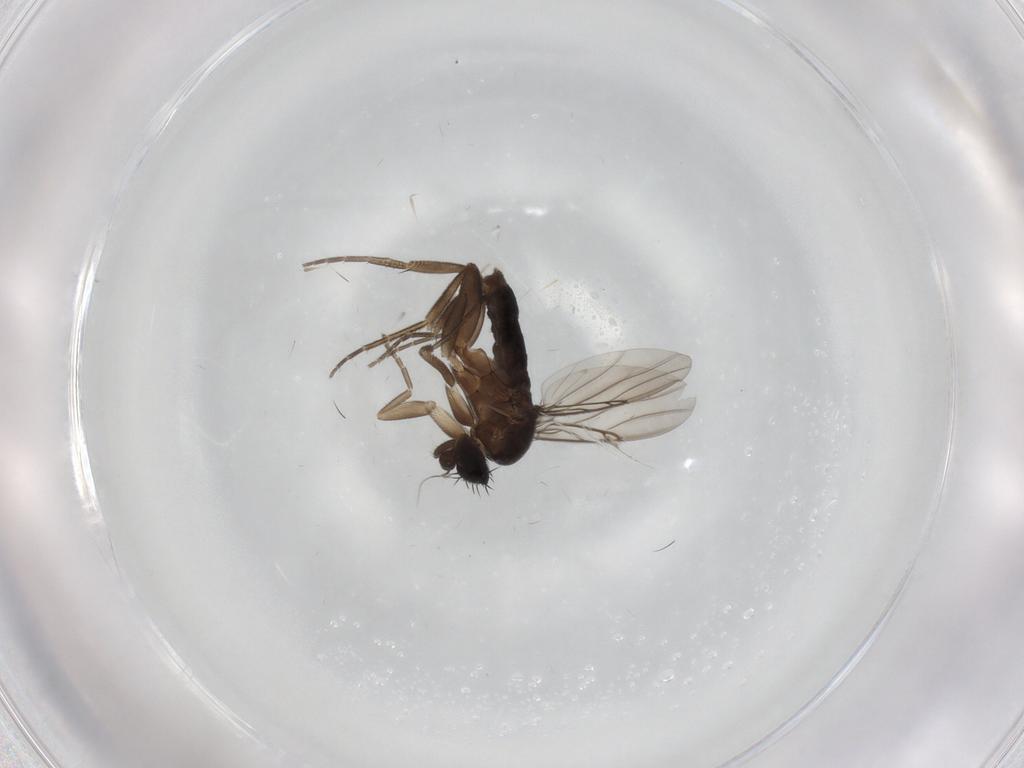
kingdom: Animalia
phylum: Arthropoda
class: Insecta
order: Diptera
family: Phoridae
